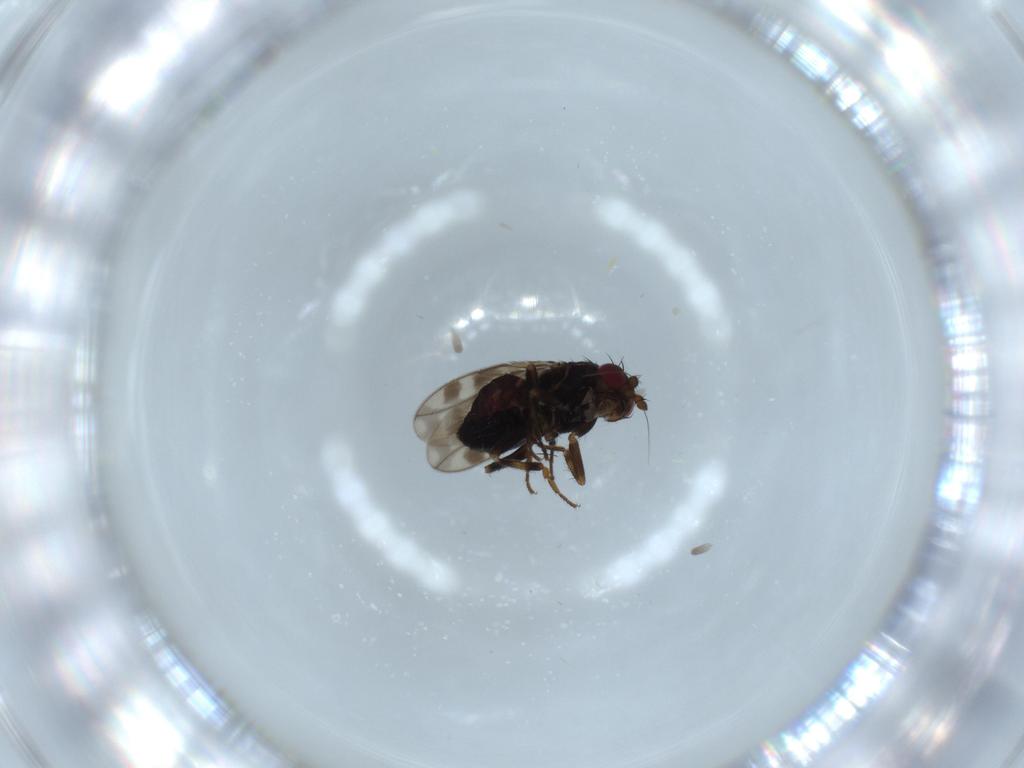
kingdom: Animalia
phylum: Arthropoda
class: Insecta
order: Diptera
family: Sphaeroceridae
